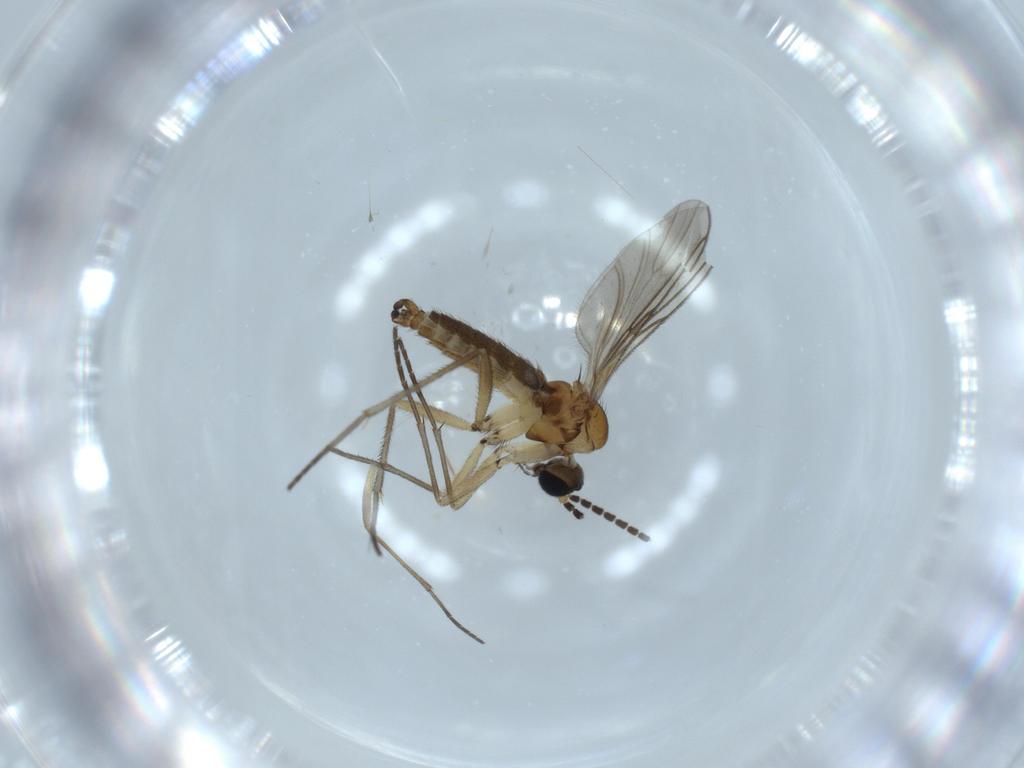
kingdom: Animalia
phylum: Arthropoda
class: Insecta
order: Diptera
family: Sciaridae
